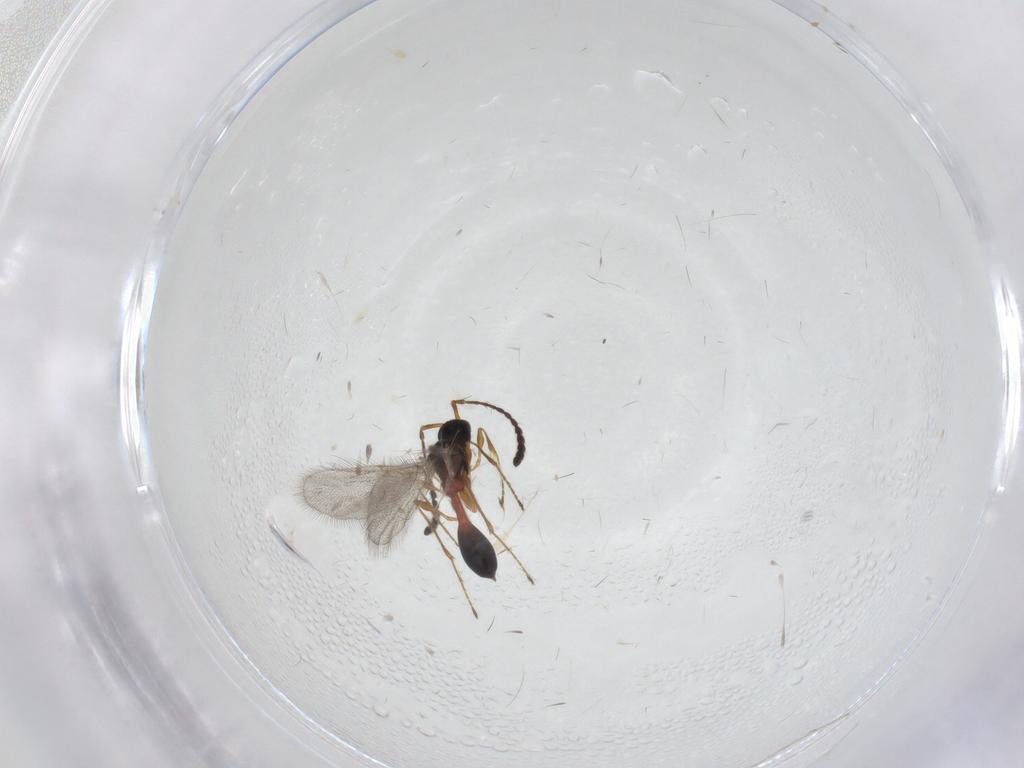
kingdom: Animalia
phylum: Arthropoda
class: Insecta
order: Hymenoptera
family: Diapriidae
